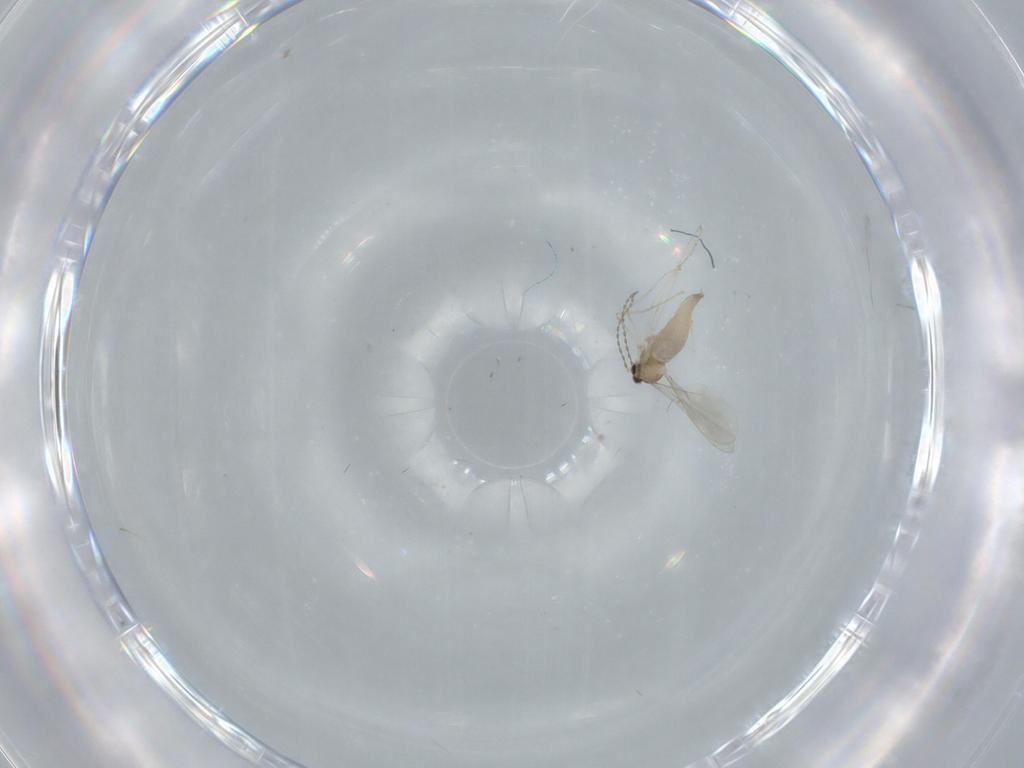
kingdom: Animalia
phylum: Arthropoda
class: Insecta
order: Diptera
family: Cecidomyiidae
